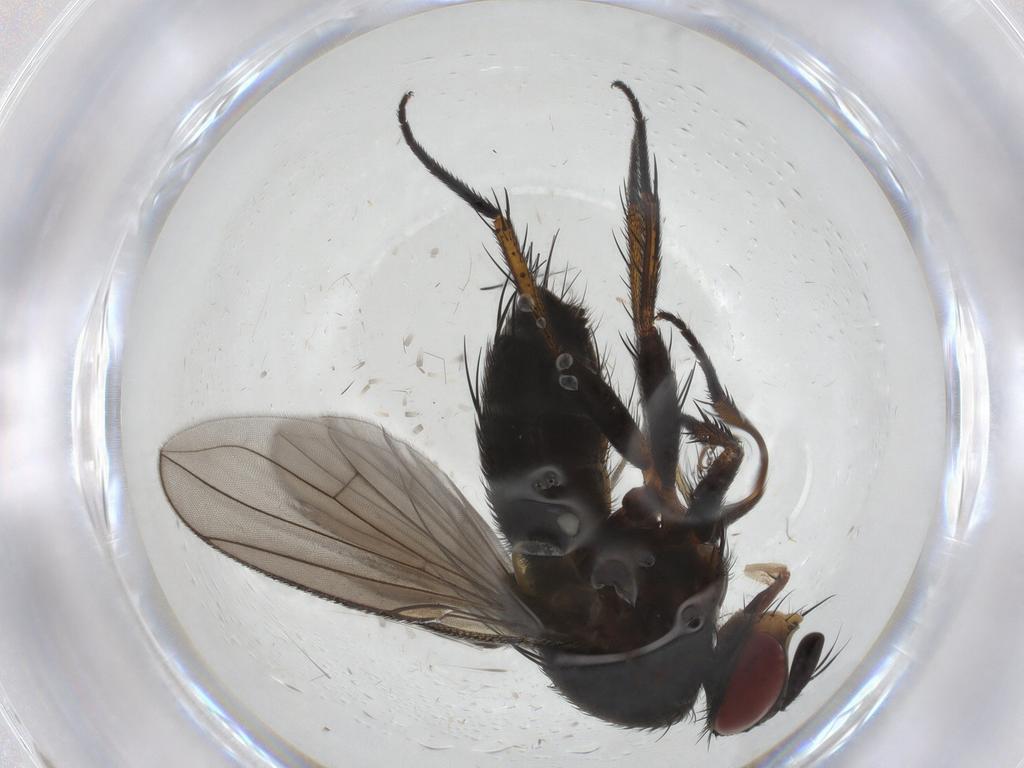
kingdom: Animalia
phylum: Arthropoda
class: Insecta
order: Diptera
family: Sciaridae
